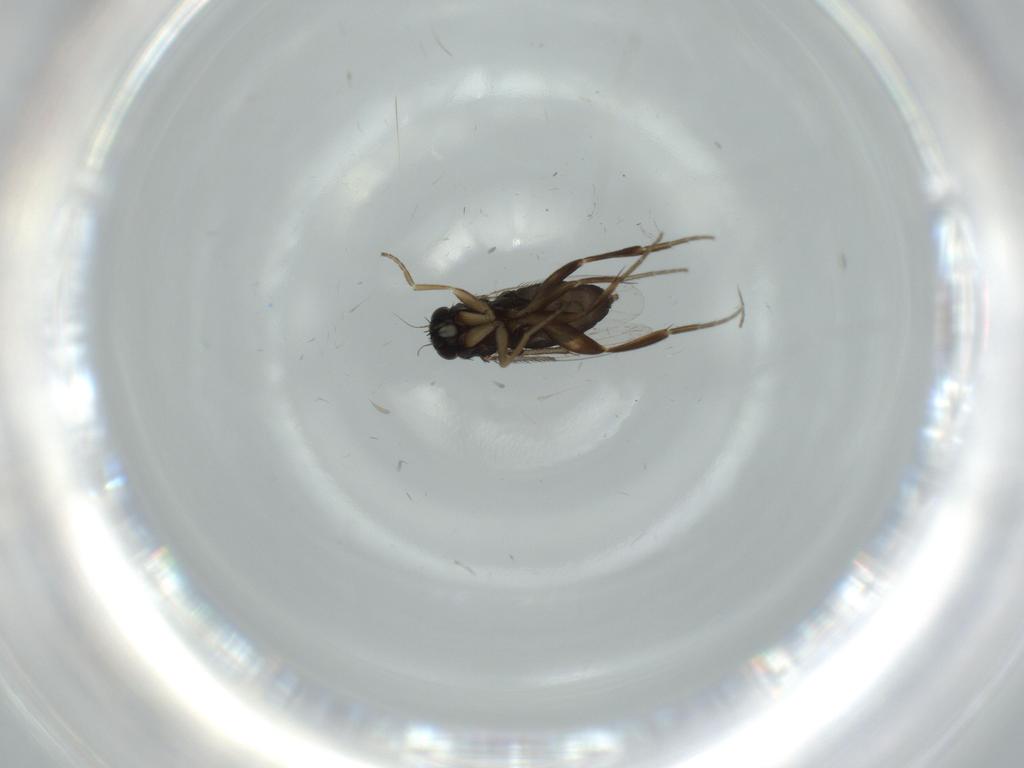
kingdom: Animalia
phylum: Arthropoda
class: Insecta
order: Diptera
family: Phoridae
